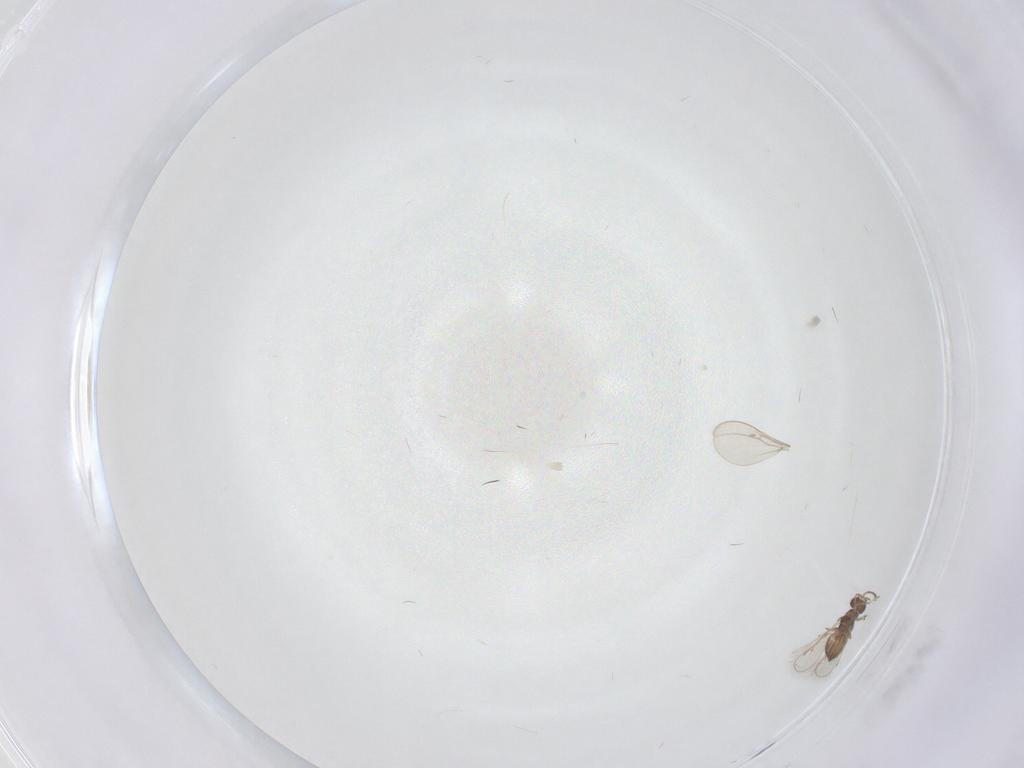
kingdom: Animalia
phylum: Arthropoda
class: Insecta
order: Hymenoptera
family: Eulophidae
